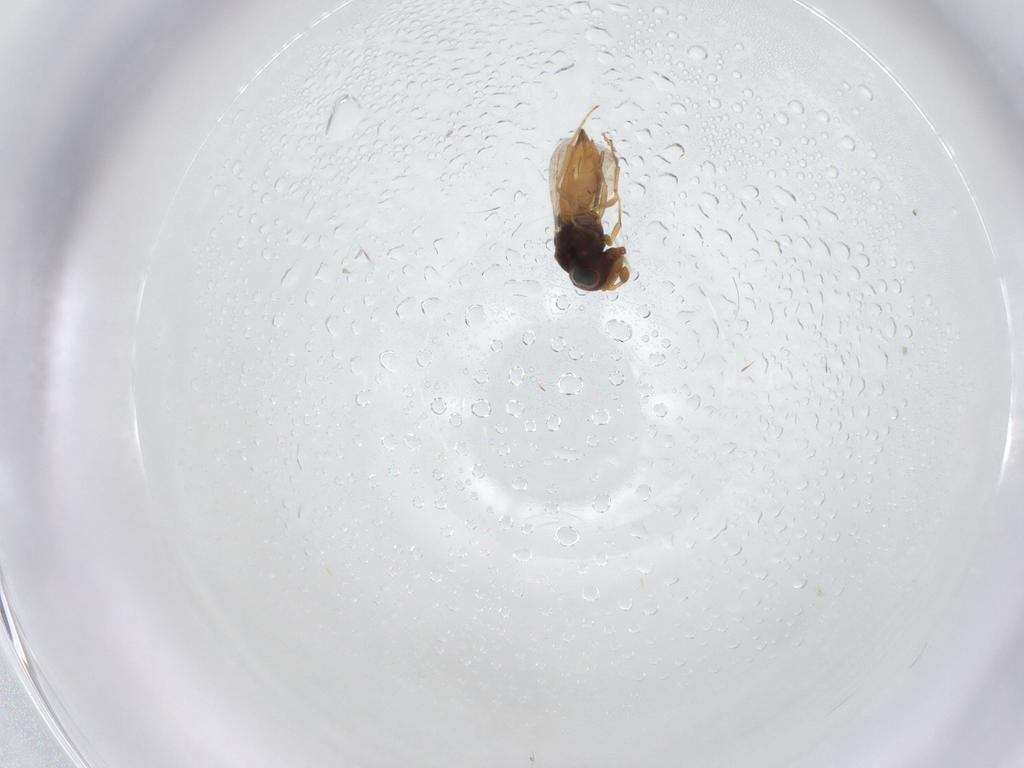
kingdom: Animalia
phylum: Arthropoda
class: Insecta
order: Hymenoptera
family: Scelionidae
